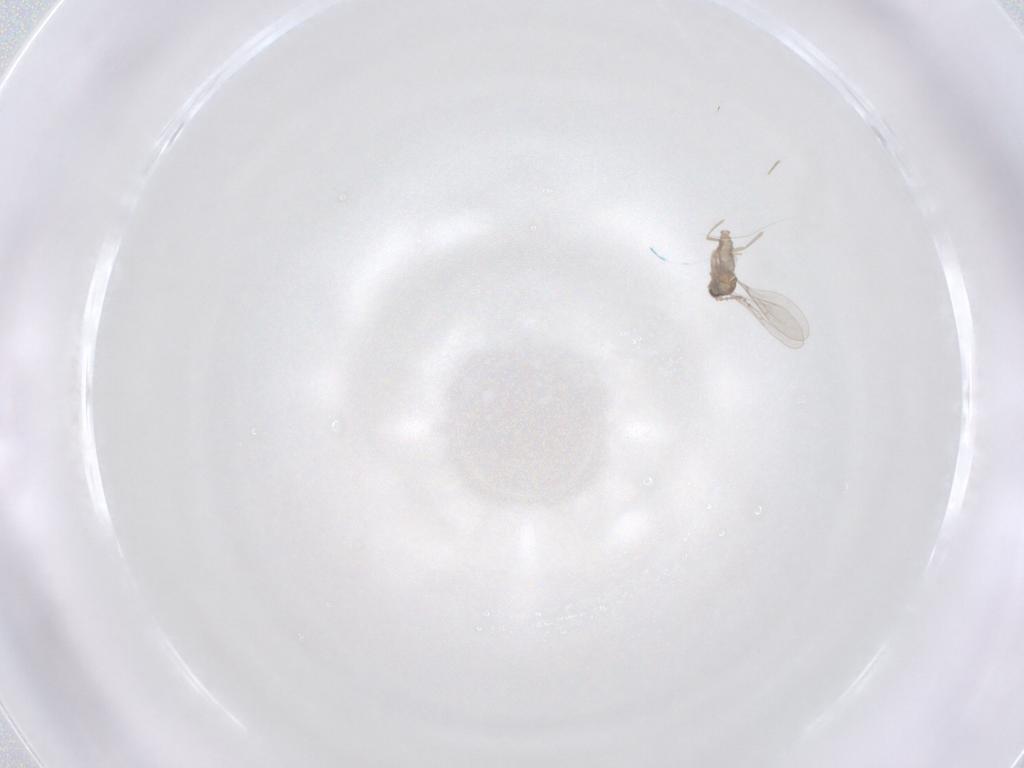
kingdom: Animalia
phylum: Arthropoda
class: Insecta
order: Diptera
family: Cecidomyiidae
